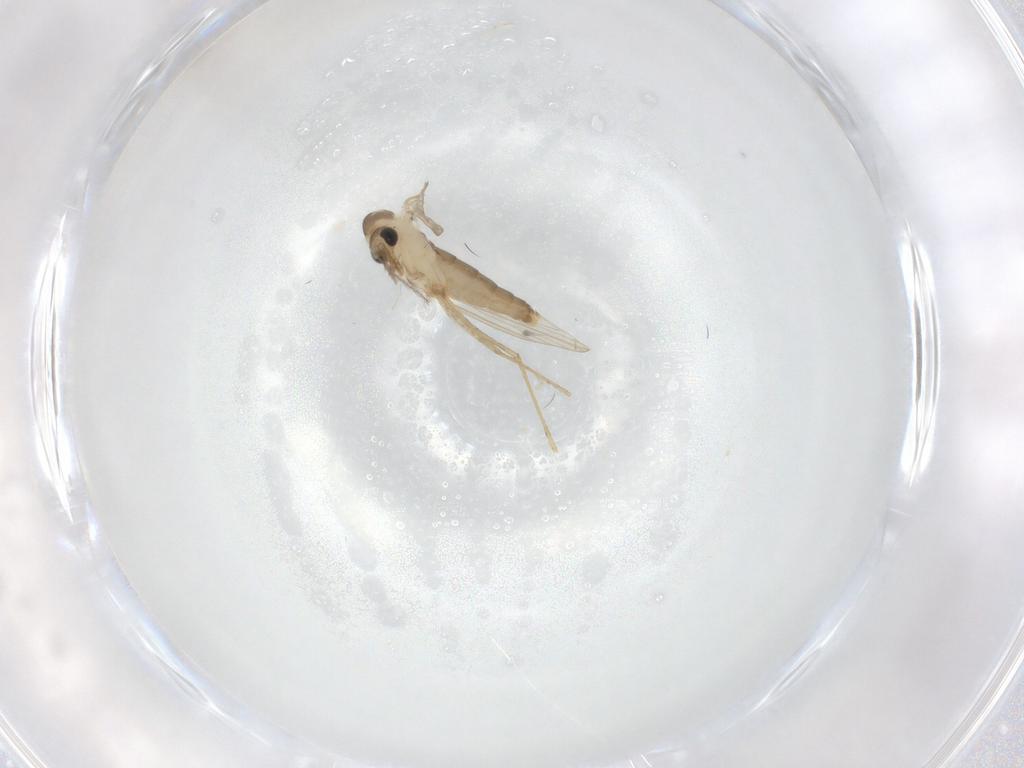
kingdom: Animalia
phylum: Arthropoda
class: Insecta
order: Diptera
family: Psychodidae
